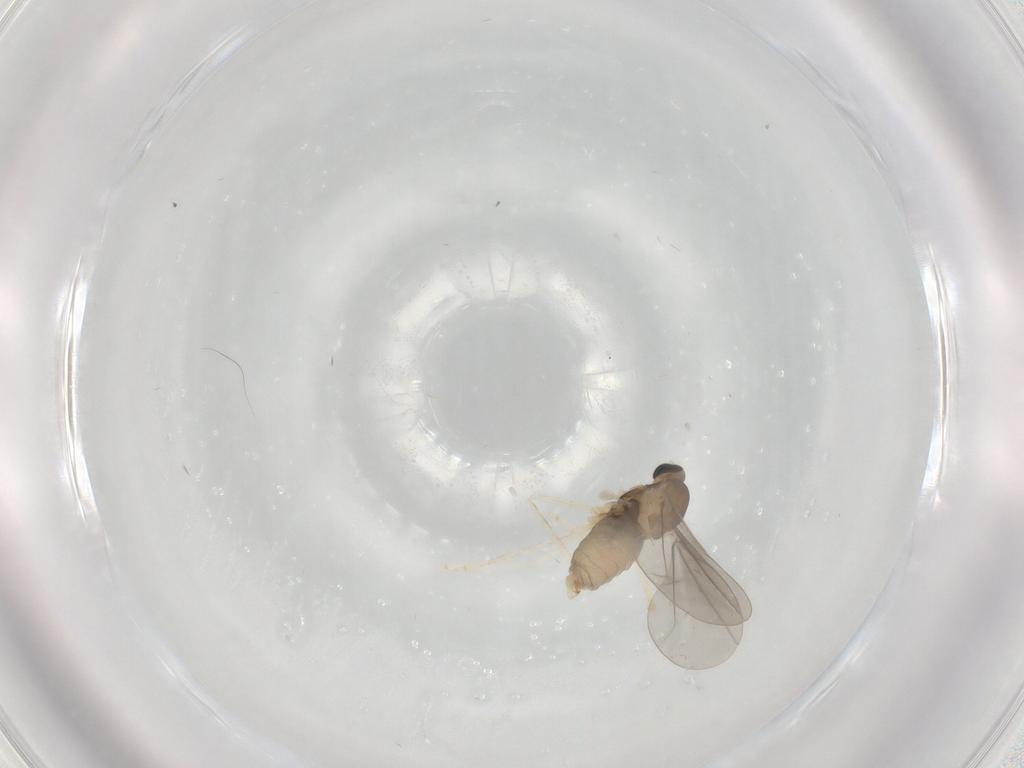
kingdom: Animalia
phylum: Arthropoda
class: Insecta
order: Diptera
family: Cecidomyiidae
